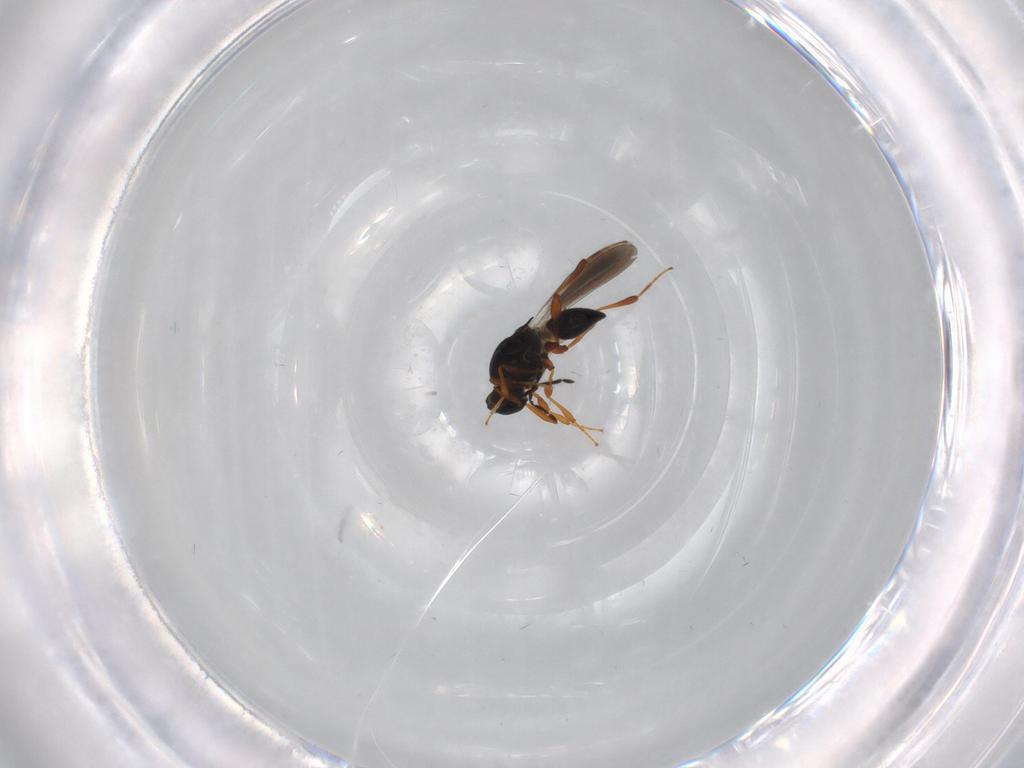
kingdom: Animalia
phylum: Arthropoda
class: Insecta
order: Hymenoptera
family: Platygastridae
